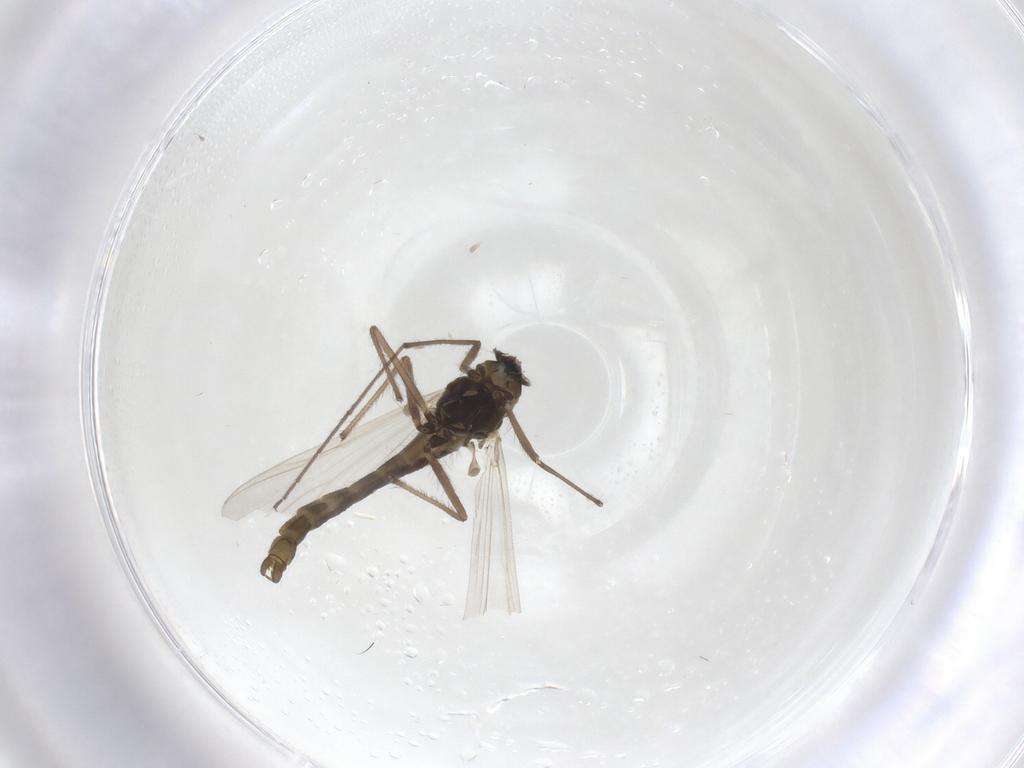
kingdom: Animalia
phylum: Arthropoda
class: Insecta
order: Diptera
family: Chironomidae
